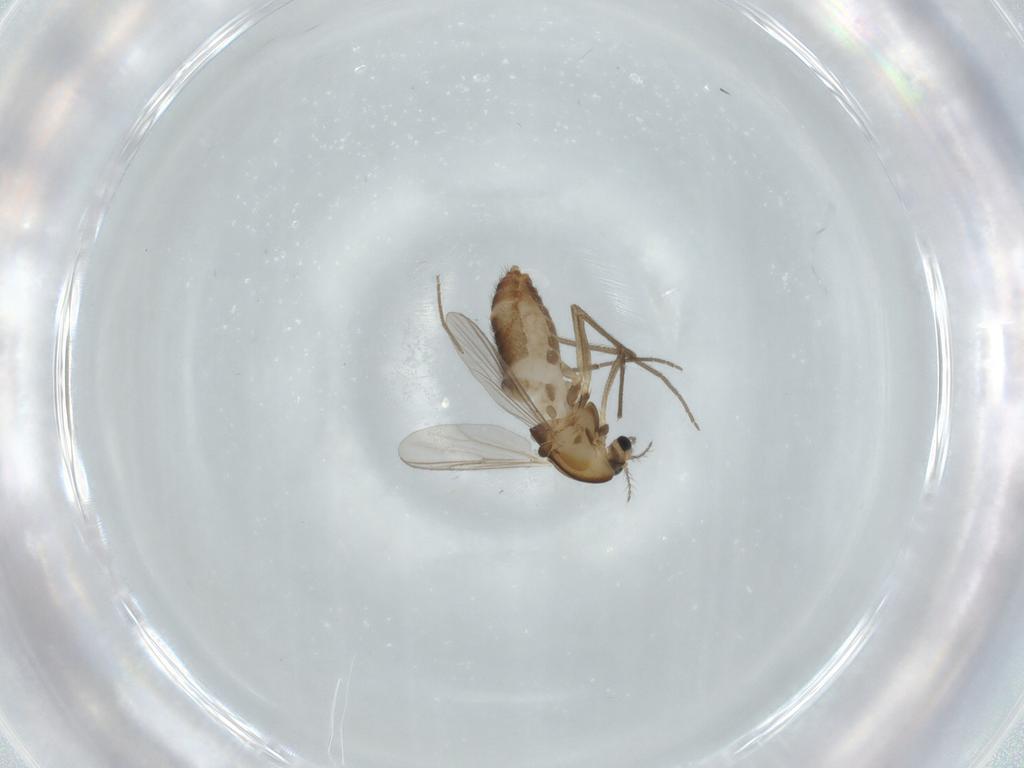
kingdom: Animalia
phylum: Arthropoda
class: Insecta
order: Diptera
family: Chironomidae
